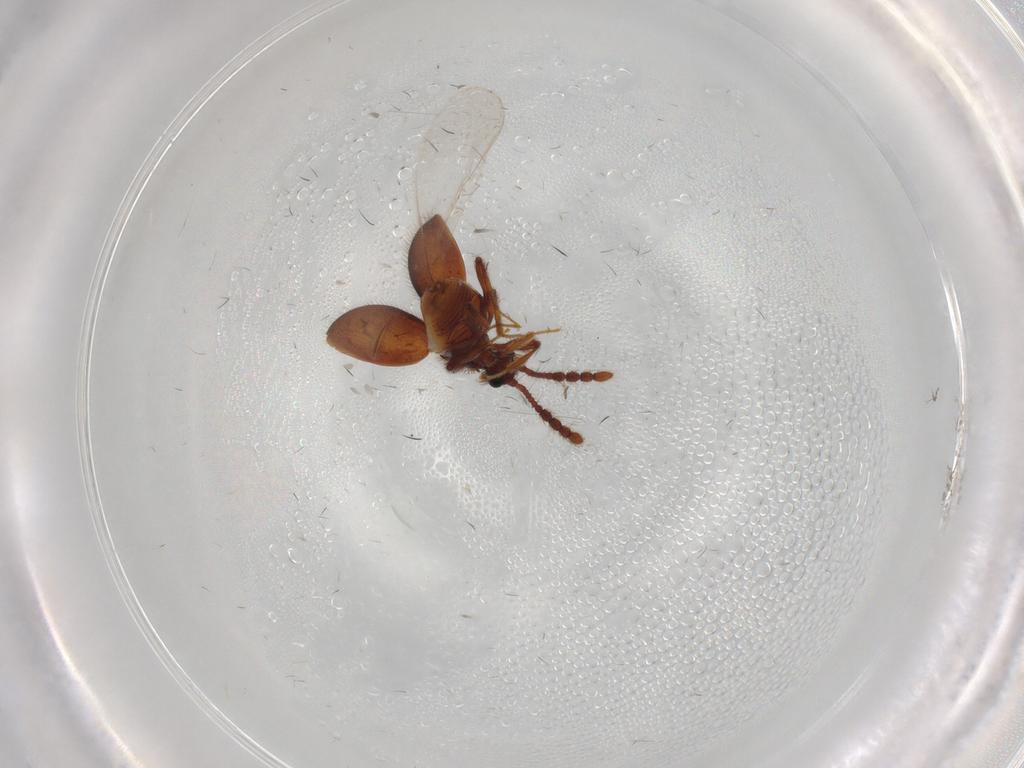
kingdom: Animalia
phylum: Arthropoda
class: Insecta
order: Coleoptera
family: Staphylinidae
